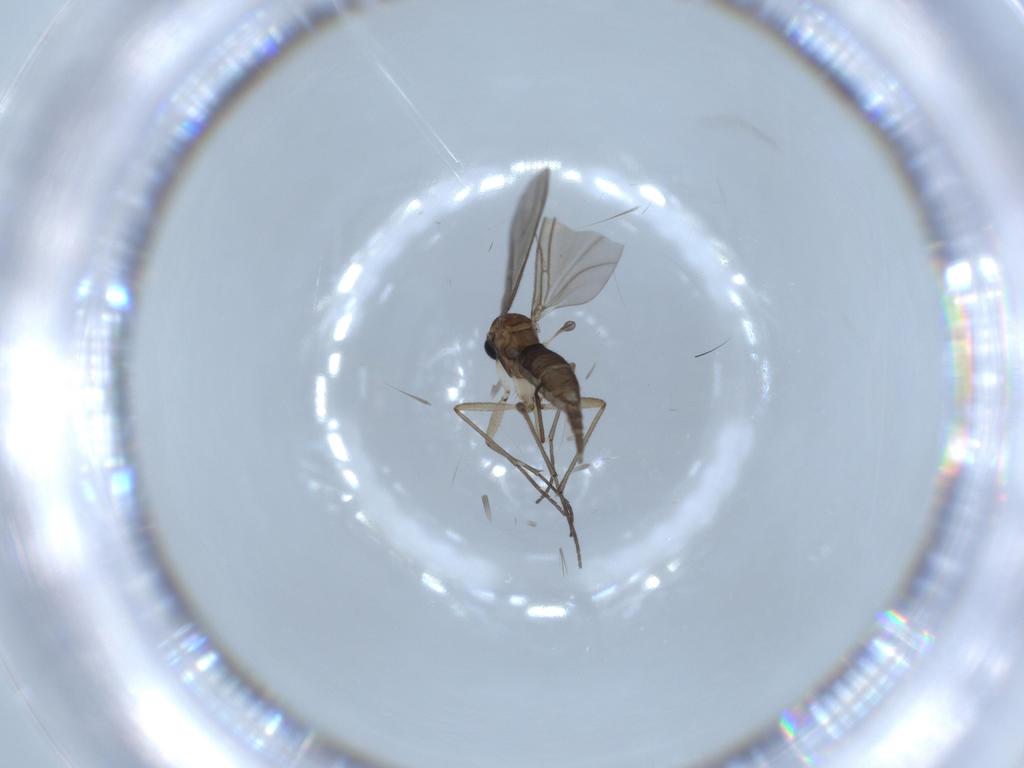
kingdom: Animalia
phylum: Arthropoda
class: Insecta
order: Diptera
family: Sciaridae
